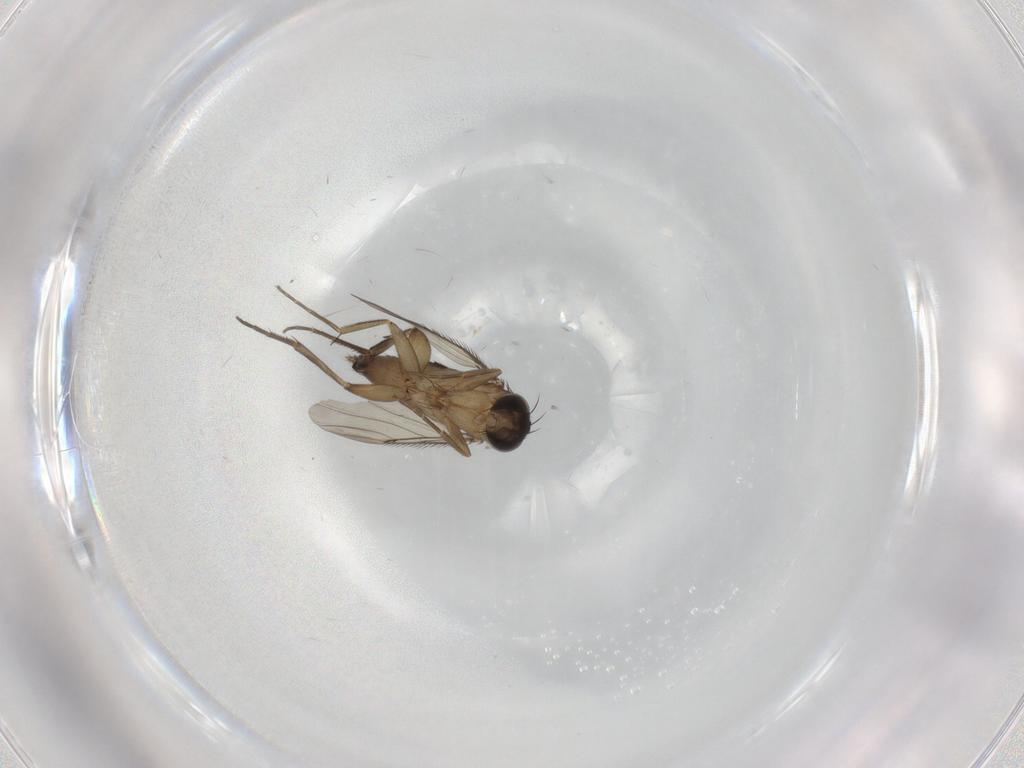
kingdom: Animalia
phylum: Arthropoda
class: Insecta
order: Diptera
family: Phoridae
